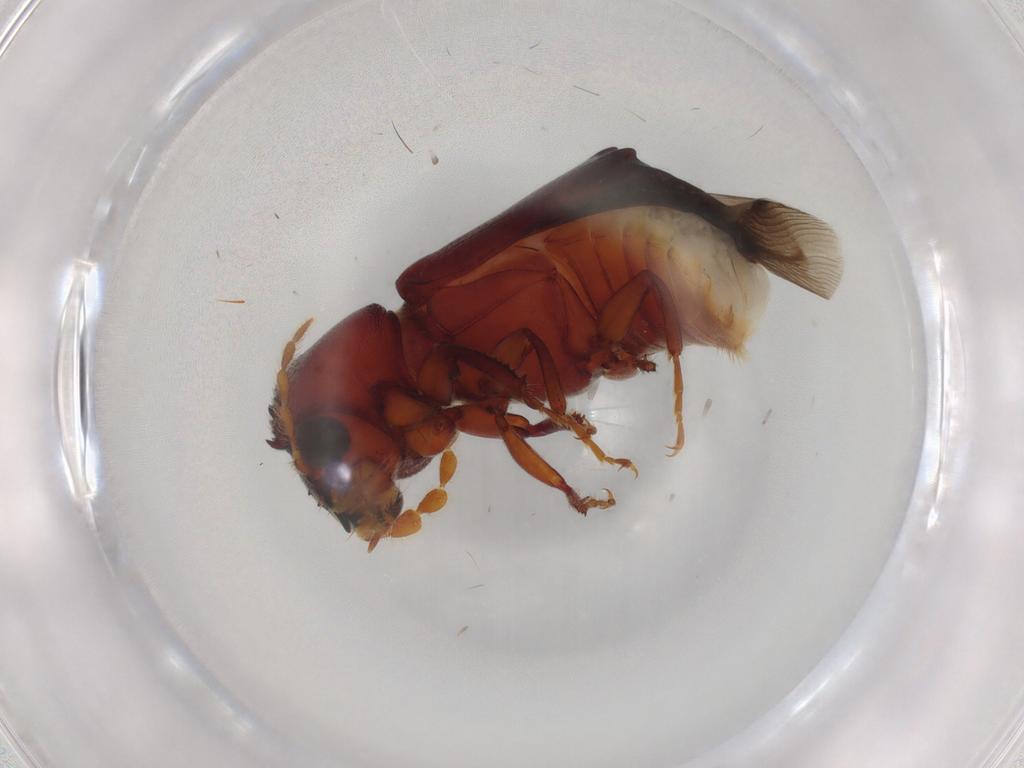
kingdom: Animalia
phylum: Arthropoda
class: Insecta
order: Coleoptera
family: Bostrichidae
